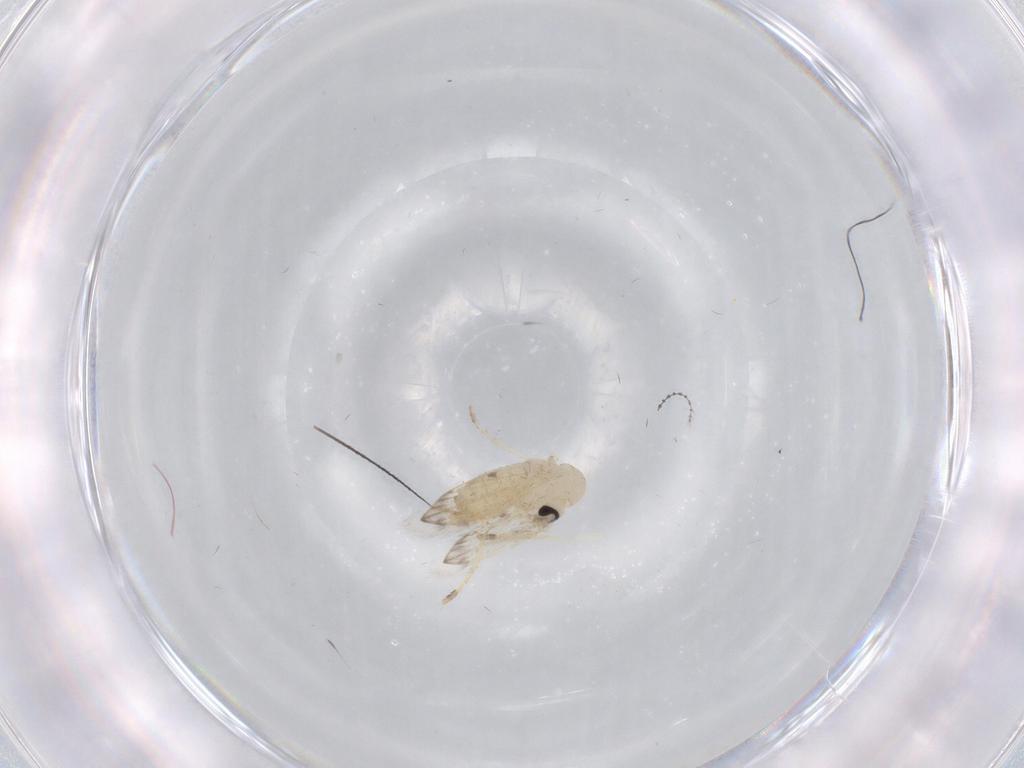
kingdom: Animalia
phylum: Arthropoda
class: Insecta
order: Diptera
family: Psychodidae
